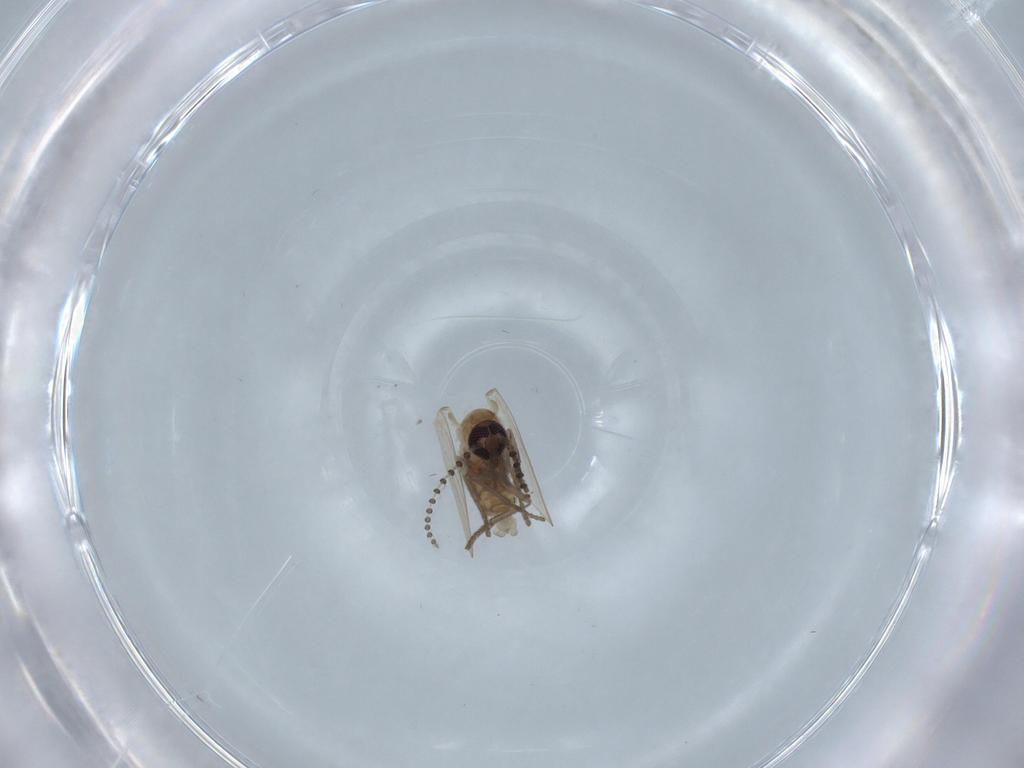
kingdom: Animalia
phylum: Arthropoda
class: Insecta
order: Diptera
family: Psychodidae
